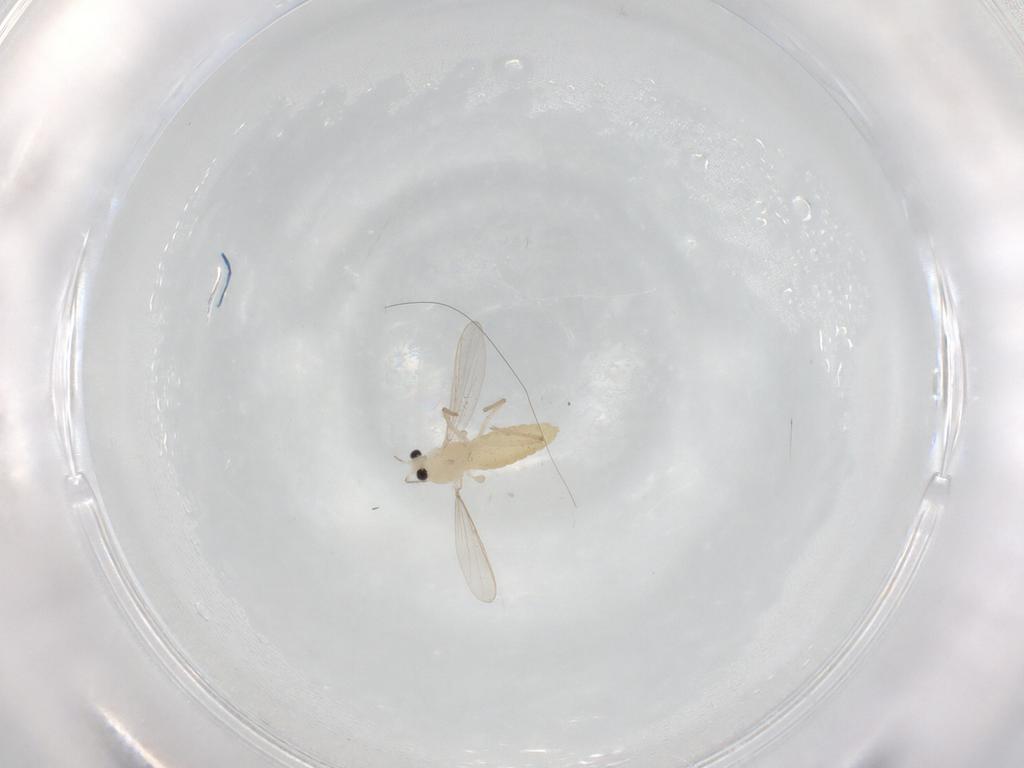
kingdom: Animalia
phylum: Arthropoda
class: Insecta
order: Diptera
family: Chironomidae
